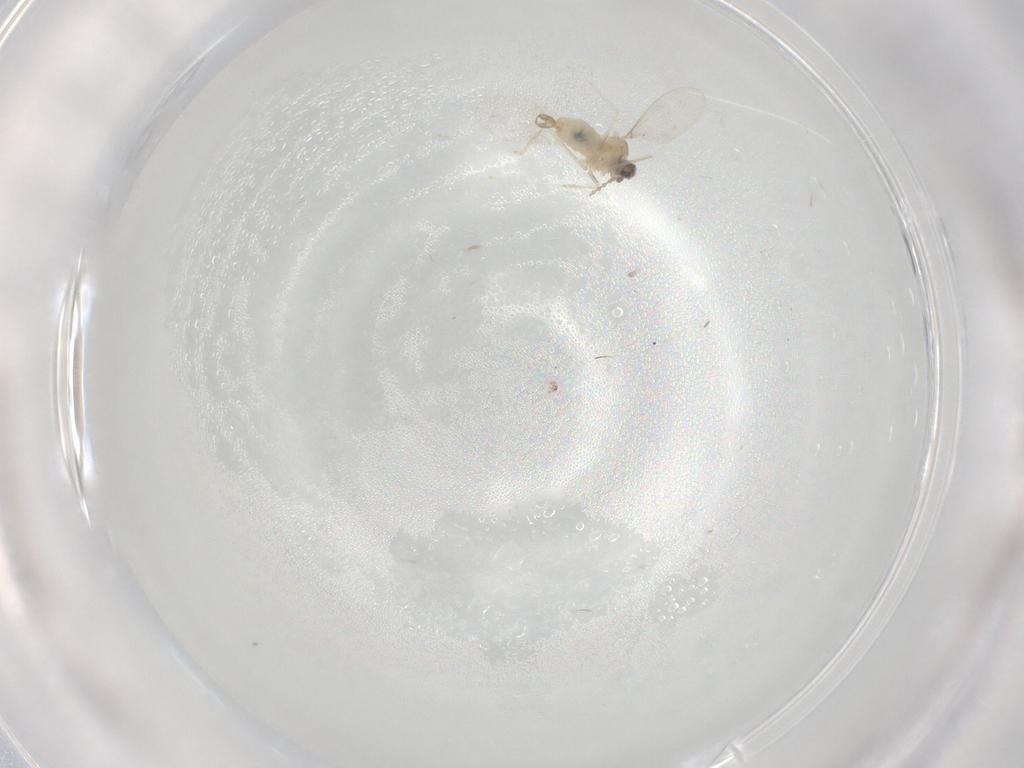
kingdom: Animalia
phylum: Arthropoda
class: Insecta
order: Diptera
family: Cecidomyiidae
